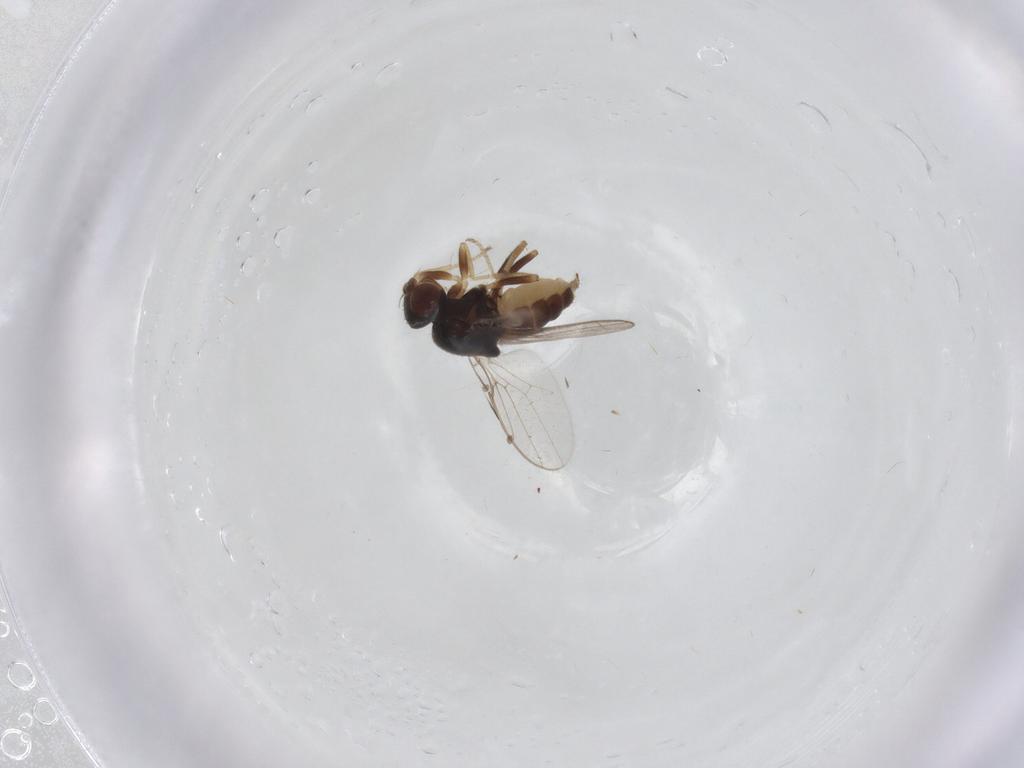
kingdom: Animalia
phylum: Arthropoda
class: Insecta
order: Diptera
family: Chloropidae
